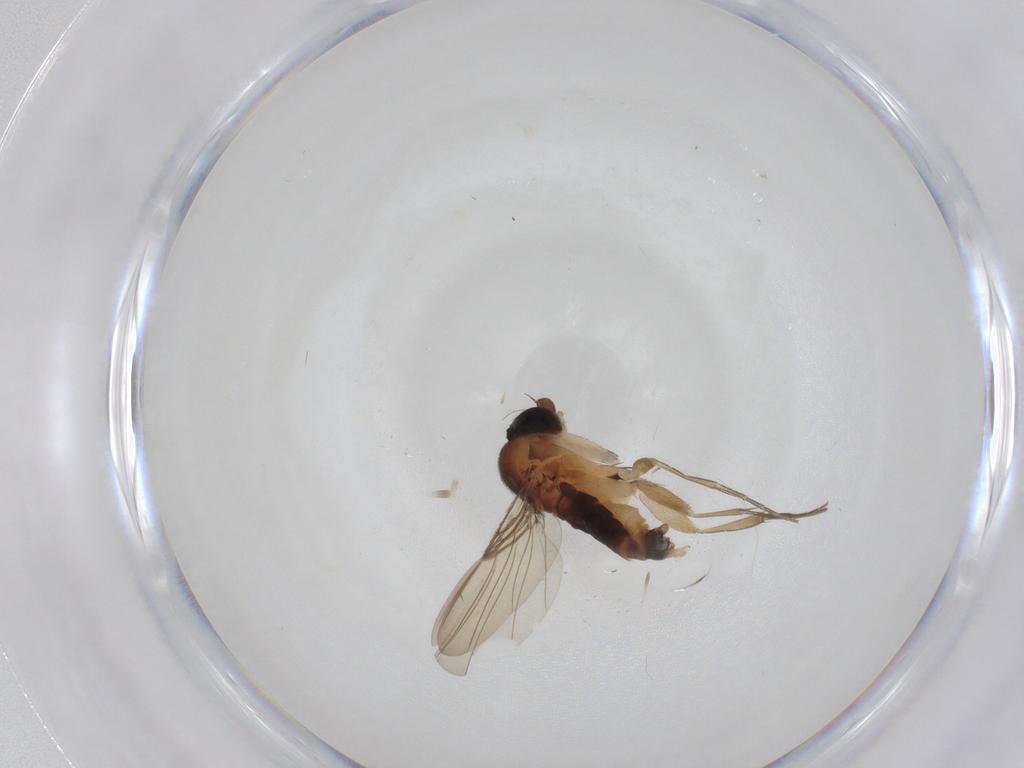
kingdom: Animalia
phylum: Arthropoda
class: Insecta
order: Diptera
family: Phoridae
